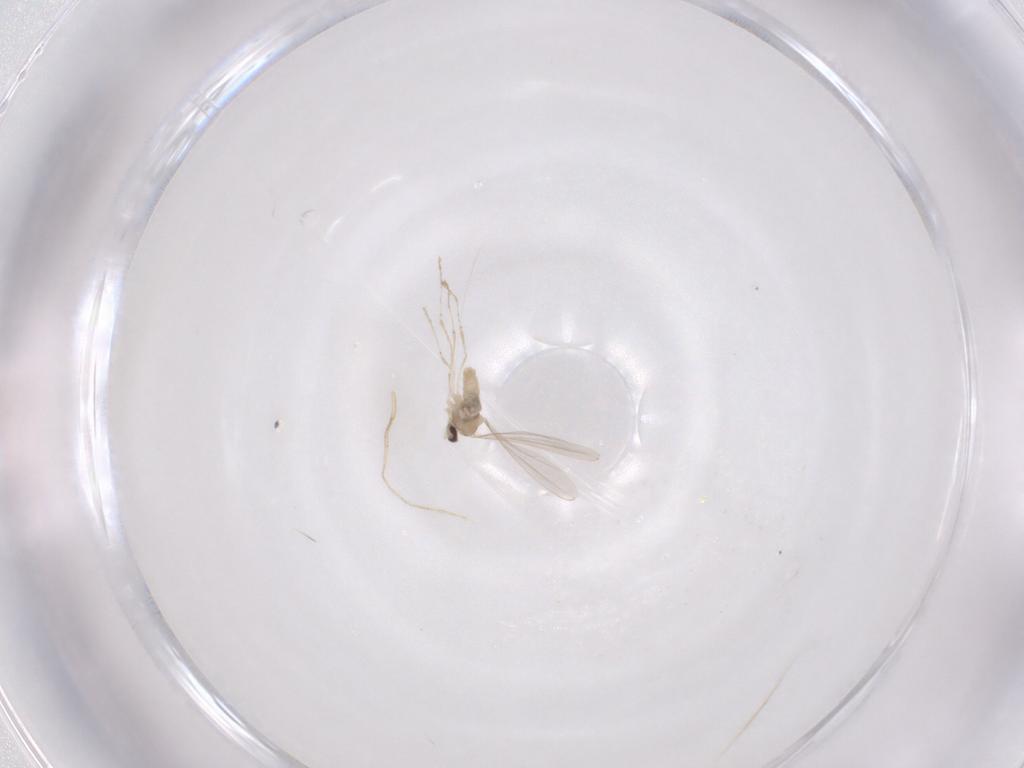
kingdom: Animalia
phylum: Arthropoda
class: Insecta
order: Diptera
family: Cecidomyiidae
